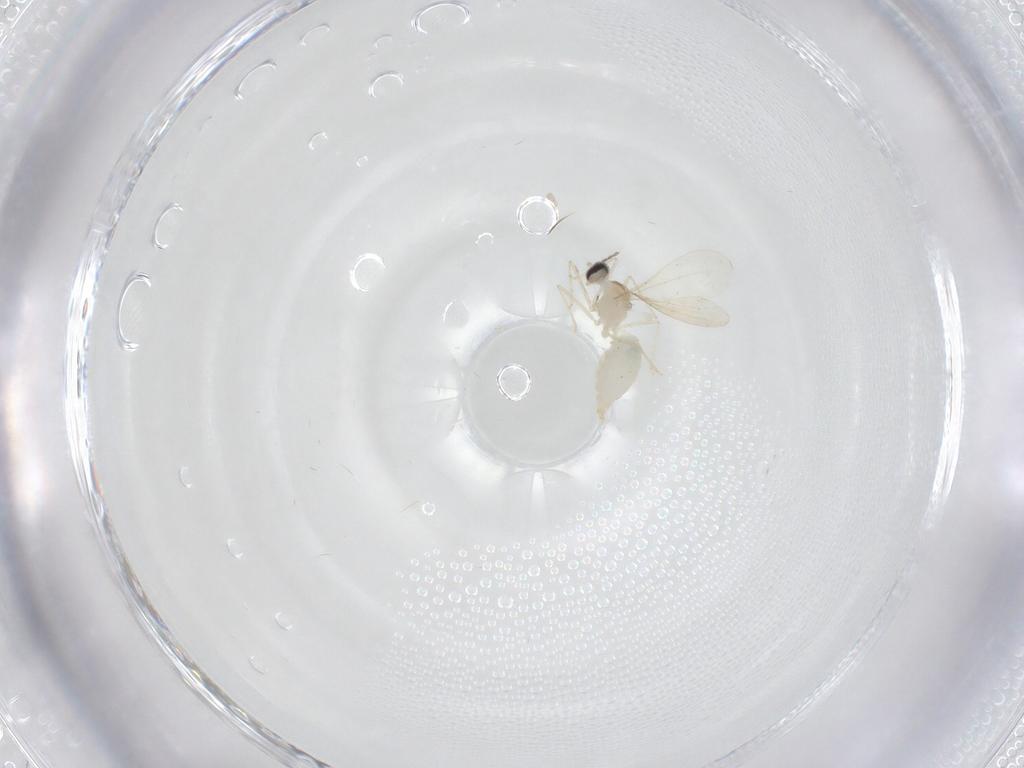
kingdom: Animalia
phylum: Arthropoda
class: Insecta
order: Diptera
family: Cecidomyiidae
